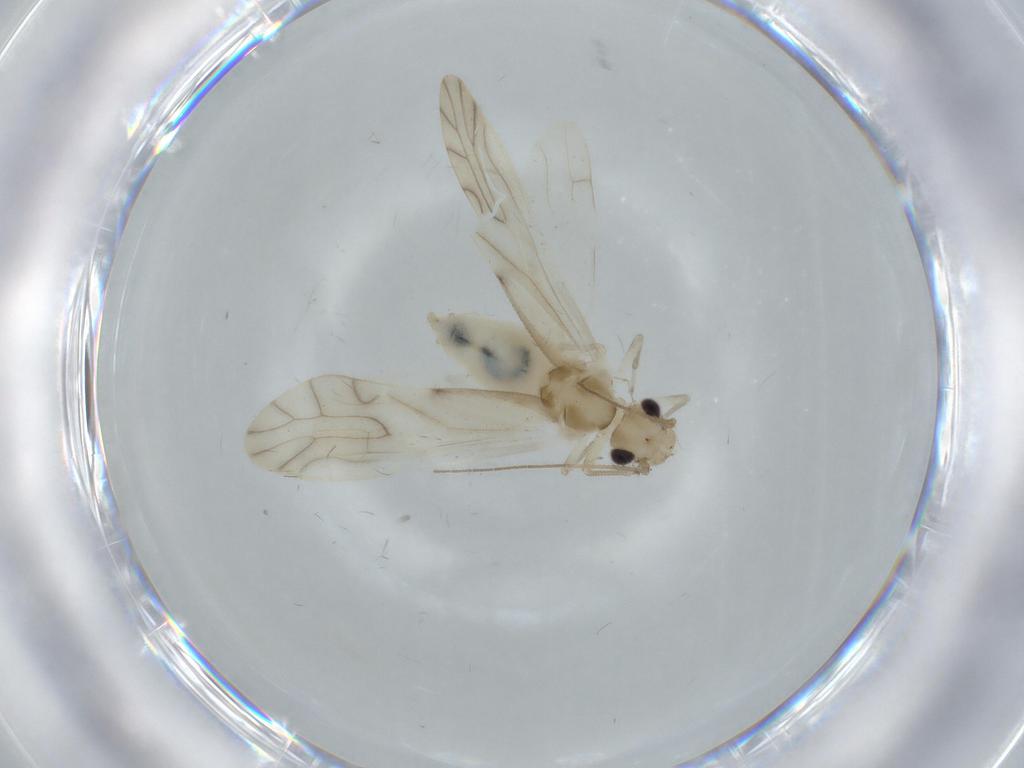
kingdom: Animalia
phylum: Arthropoda
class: Insecta
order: Psocodea
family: Caeciliusidae
